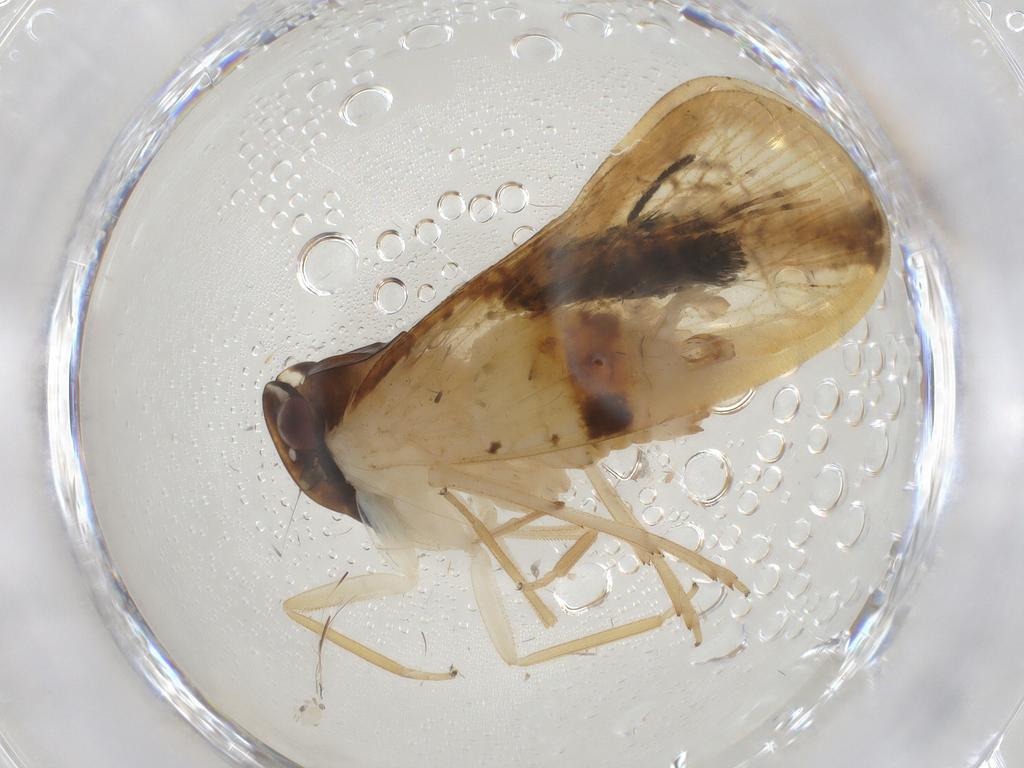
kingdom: Animalia
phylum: Arthropoda
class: Insecta
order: Hemiptera
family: Cixiidae
